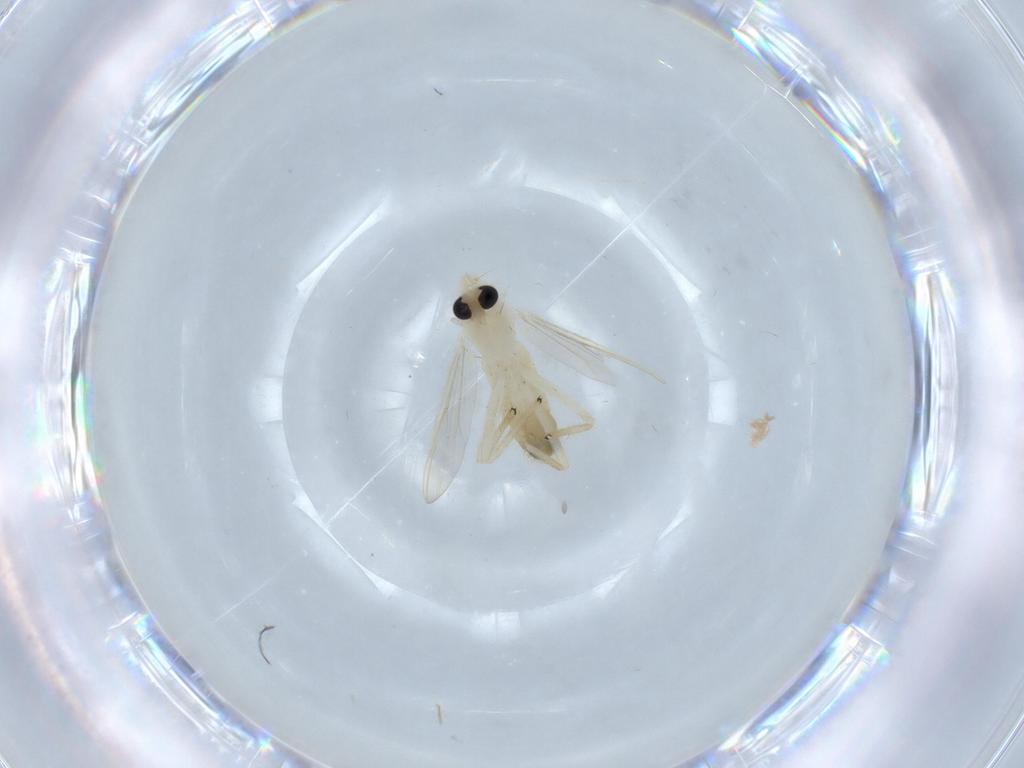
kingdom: Animalia
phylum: Arthropoda
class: Insecta
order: Diptera
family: Chironomidae
